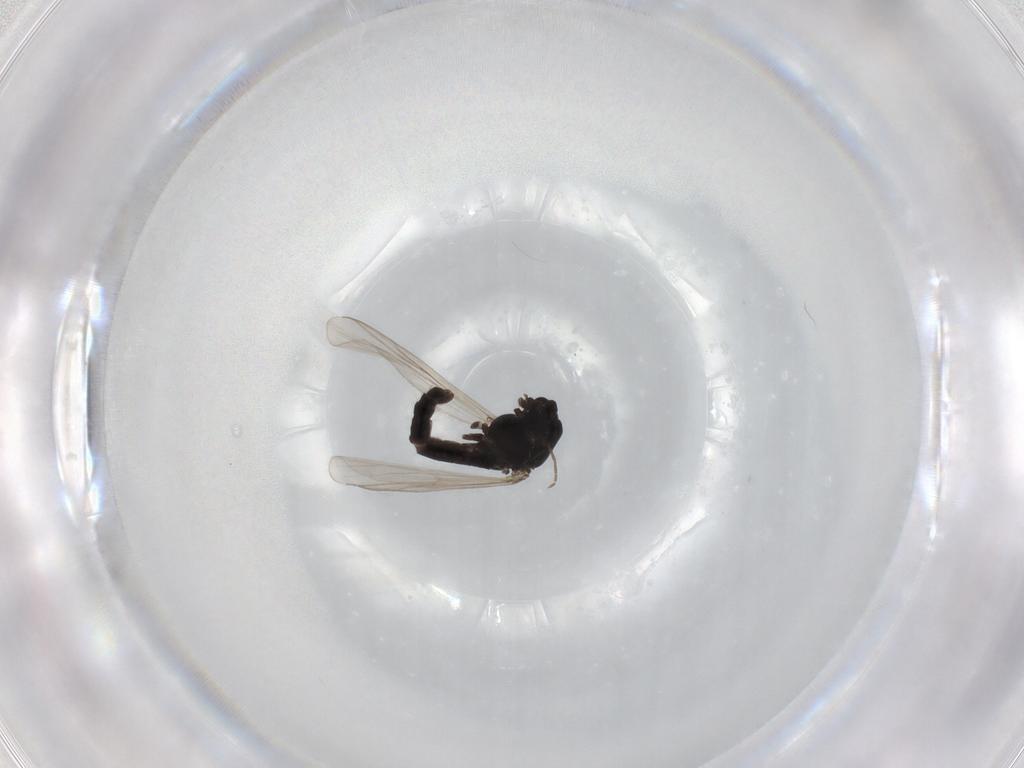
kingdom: Animalia
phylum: Arthropoda
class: Insecta
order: Diptera
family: Chironomidae
